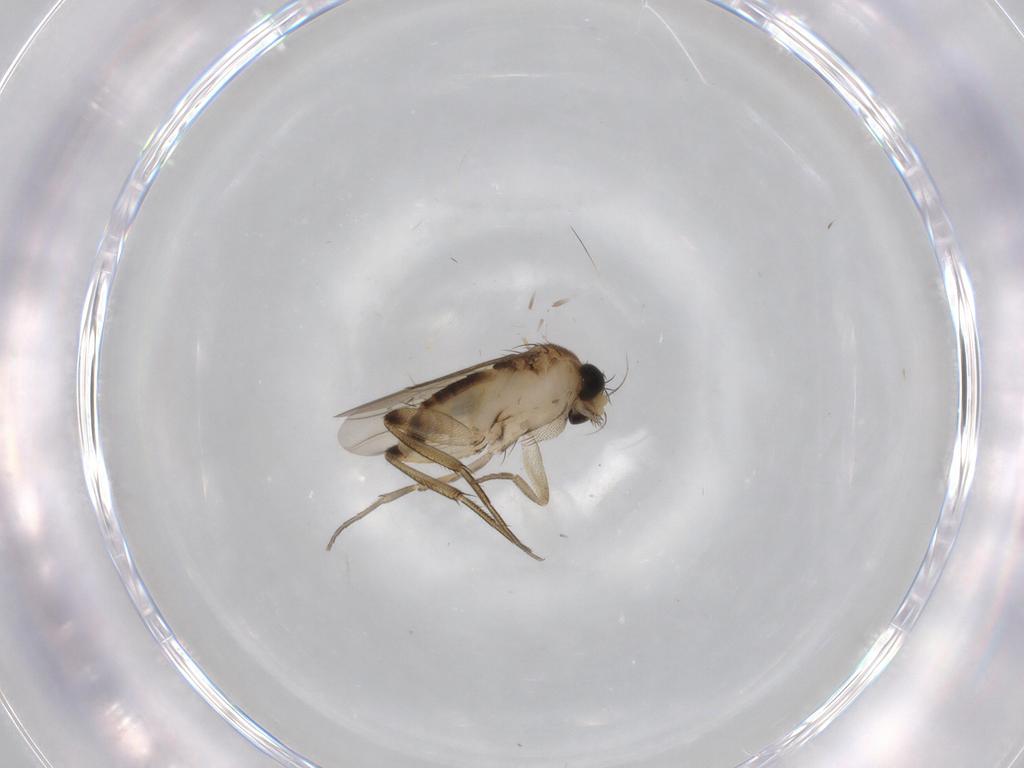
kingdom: Animalia
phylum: Arthropoda
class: Insecta
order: Diptera
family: Phoridae
